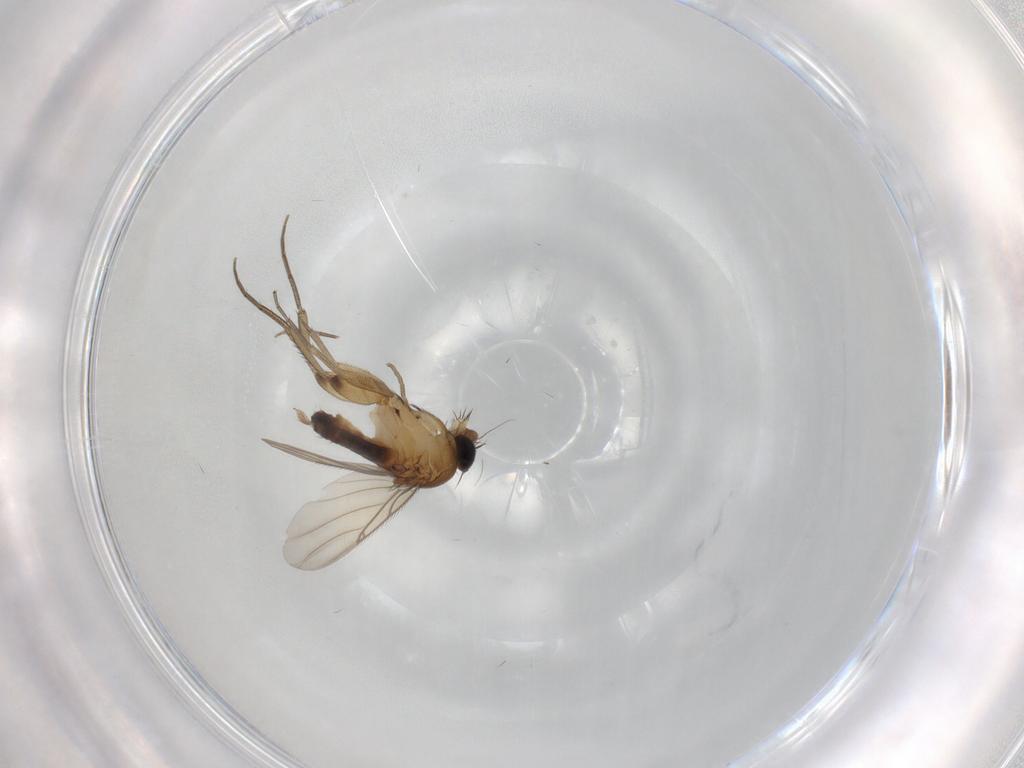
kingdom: Animalia
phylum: Arthropoda
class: Insecta
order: Diptera
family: Phoridae
